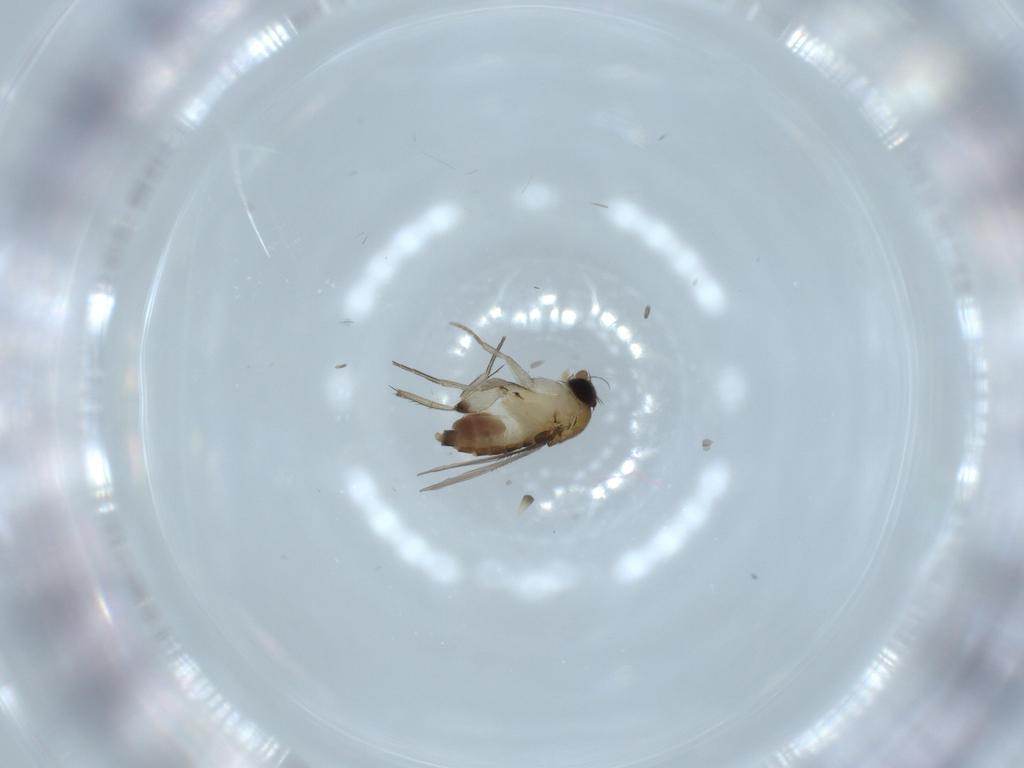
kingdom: Animalia
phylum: Arthropoda
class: Insecta
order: Diptera
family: Phoridae
